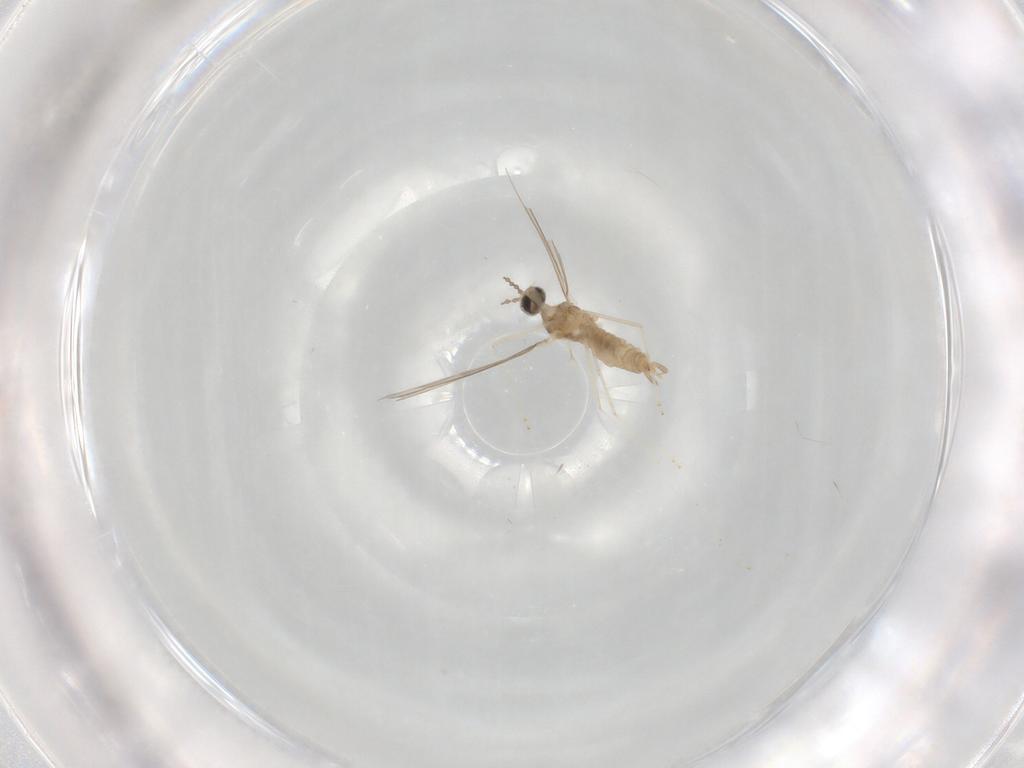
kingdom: Animalia
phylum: Arthropoda
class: Insecta
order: Diptera
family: Cecidomyiidae
